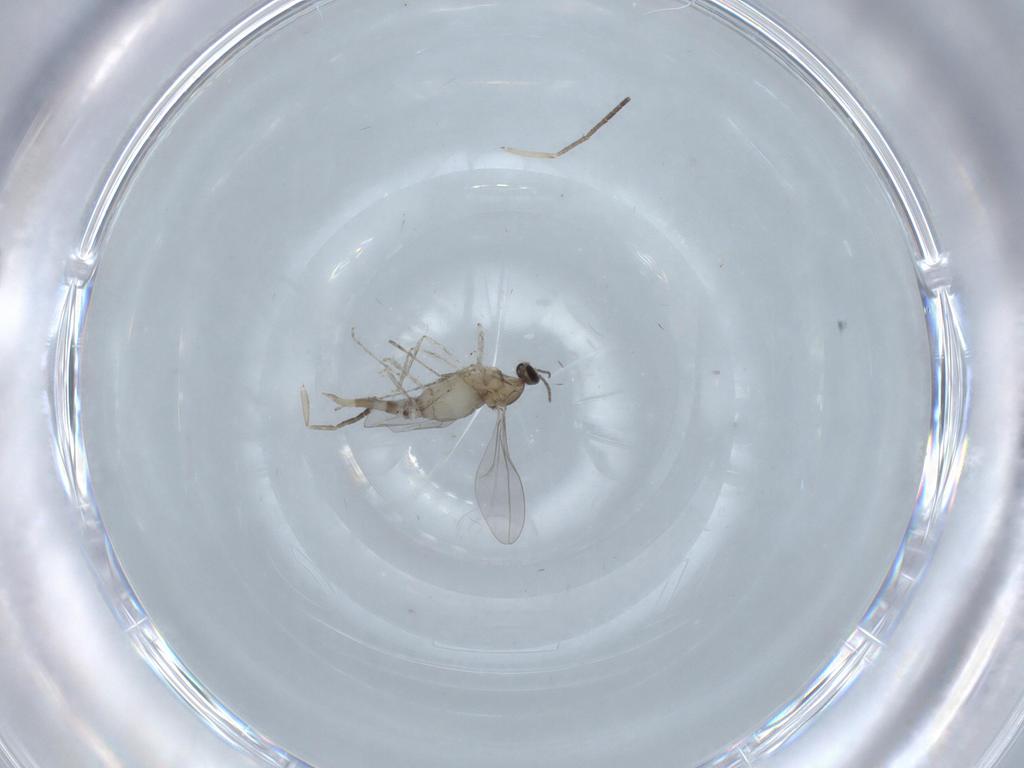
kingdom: Animalia
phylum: Arthropoda
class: Insecta
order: Diptera
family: Cecidomyiidae
